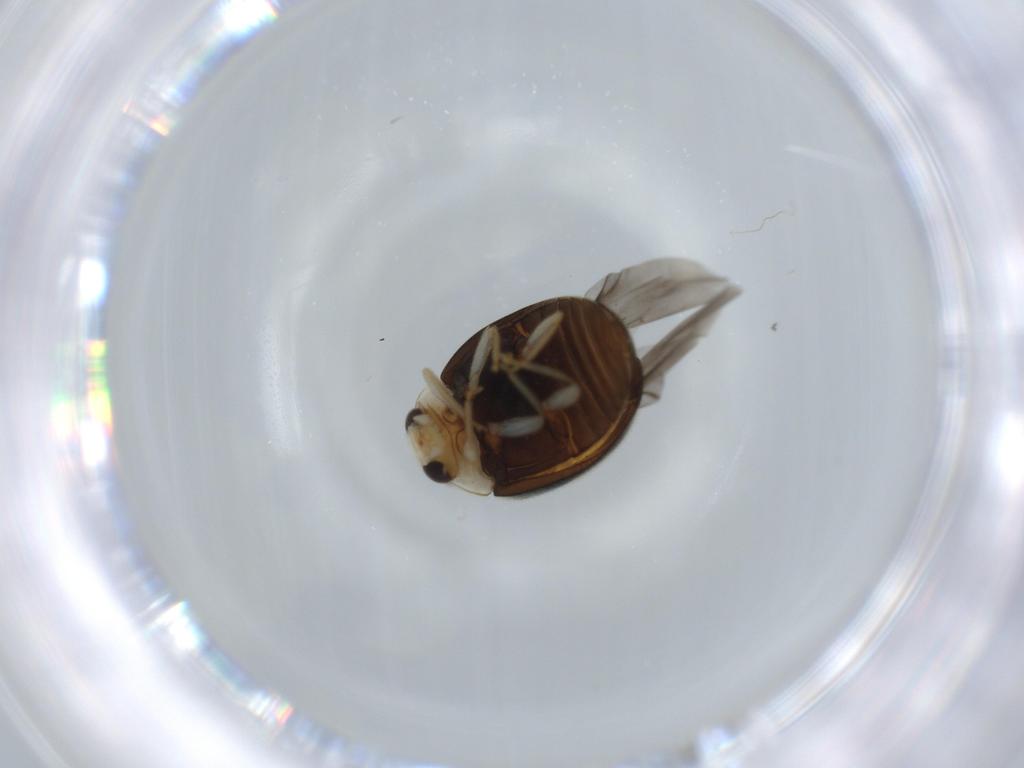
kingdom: Animalia
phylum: Arthropoda
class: Insecta
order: Coleoptera
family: Coccinellidae
